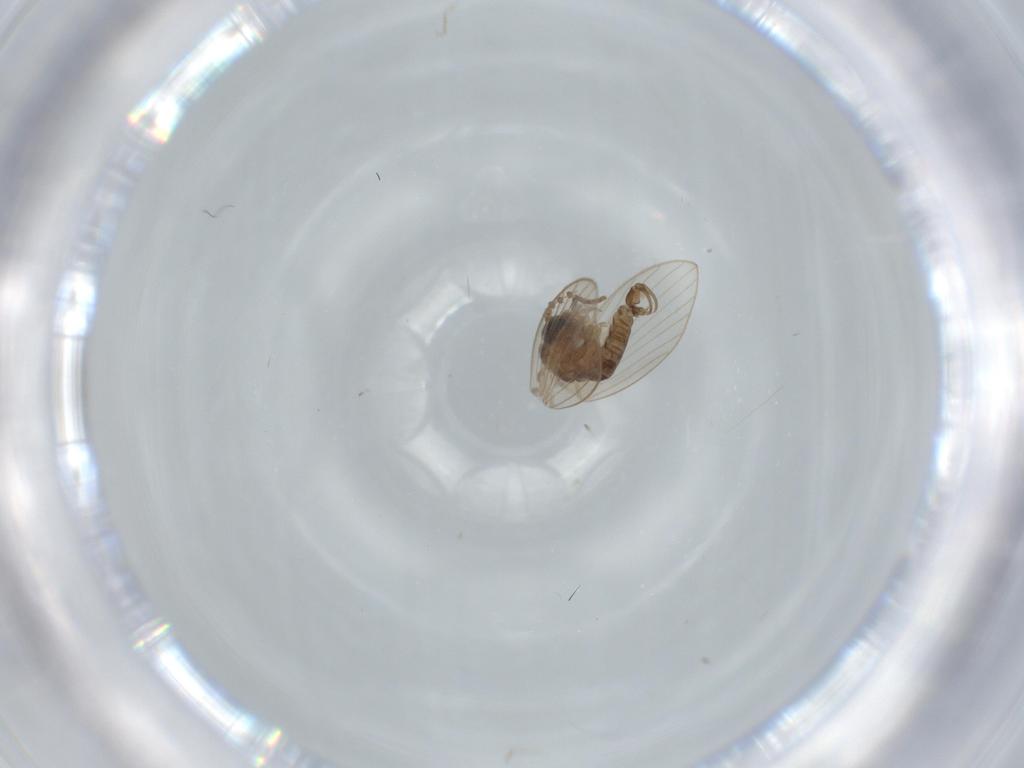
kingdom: Animalia
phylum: Arthropoda
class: Insecta
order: Diptera
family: Psychodidae
